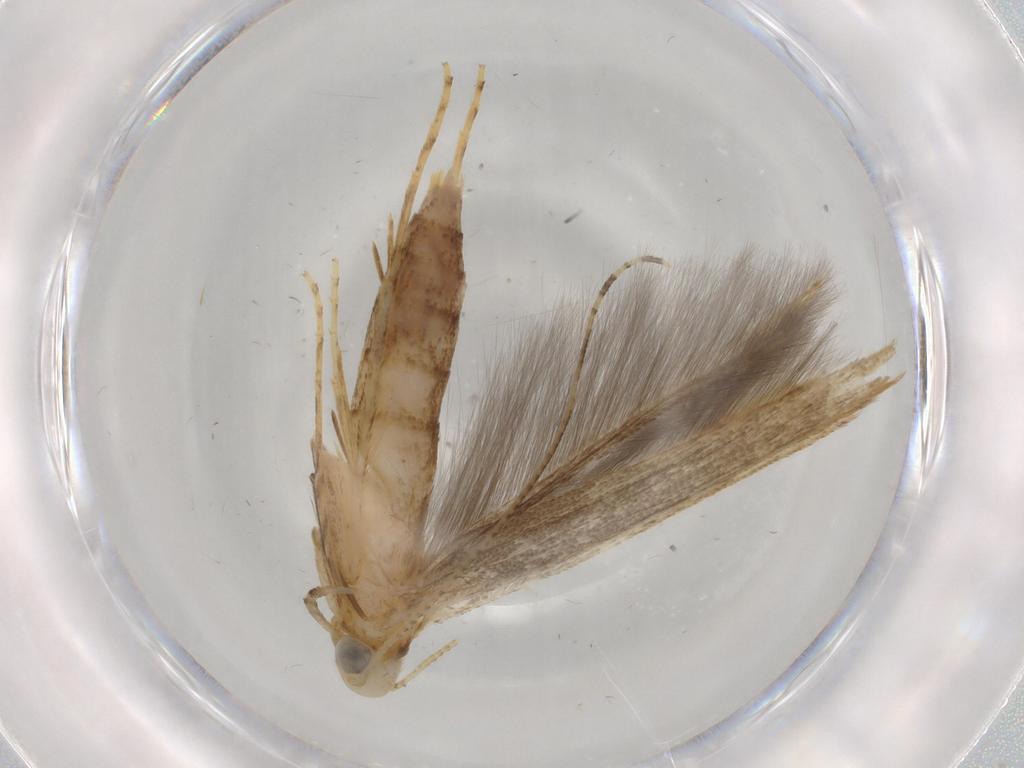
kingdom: Animalia
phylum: Arthropoda
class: Insecta
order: Lepidoptera
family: Batrachedridae
